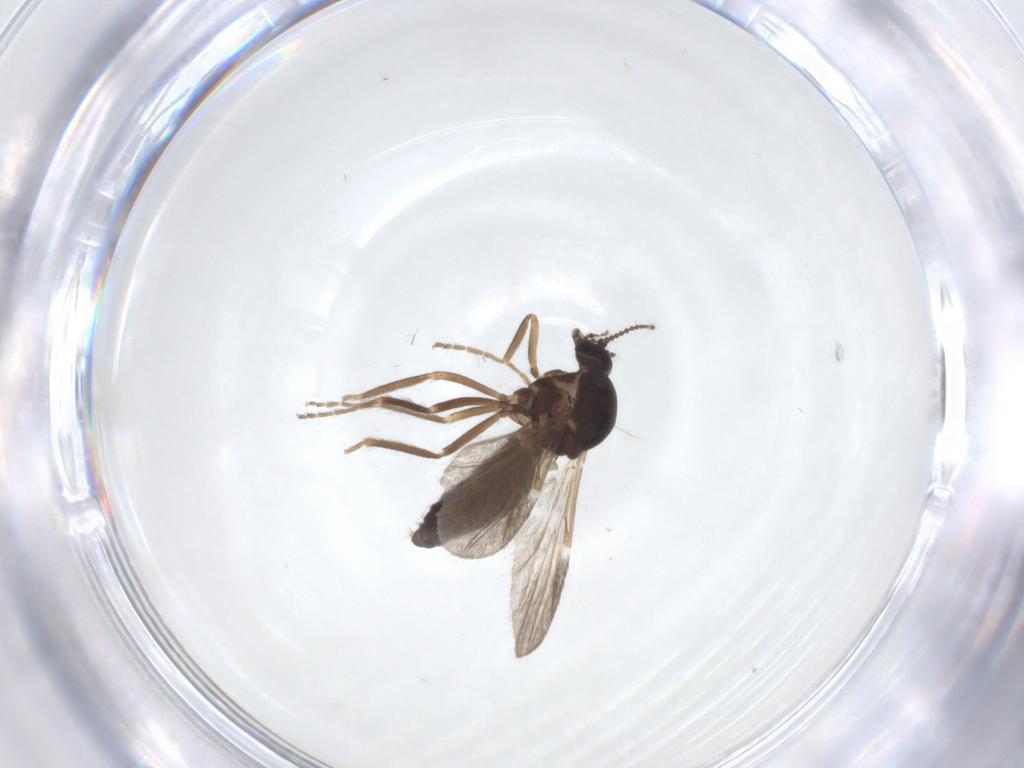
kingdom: Animalia
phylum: Arthropoda
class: Insecta
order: Diptera
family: Ceratopogonidae
